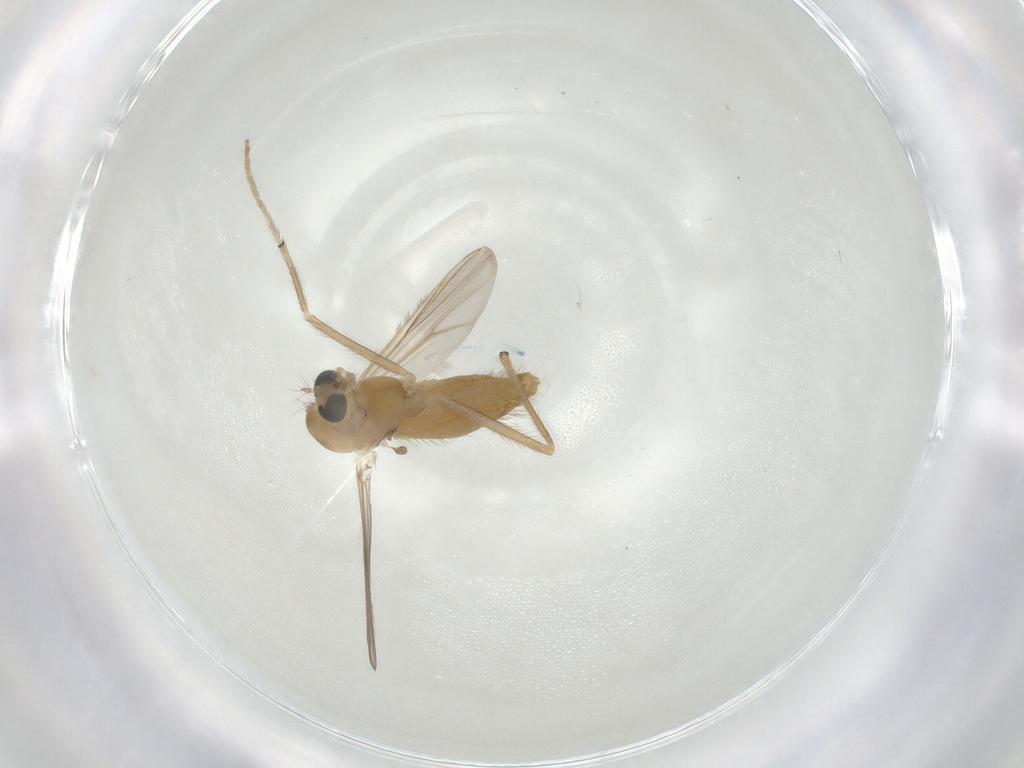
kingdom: Animalia
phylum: Arthropoda
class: Insecta
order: Diptera
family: Chironomidae
